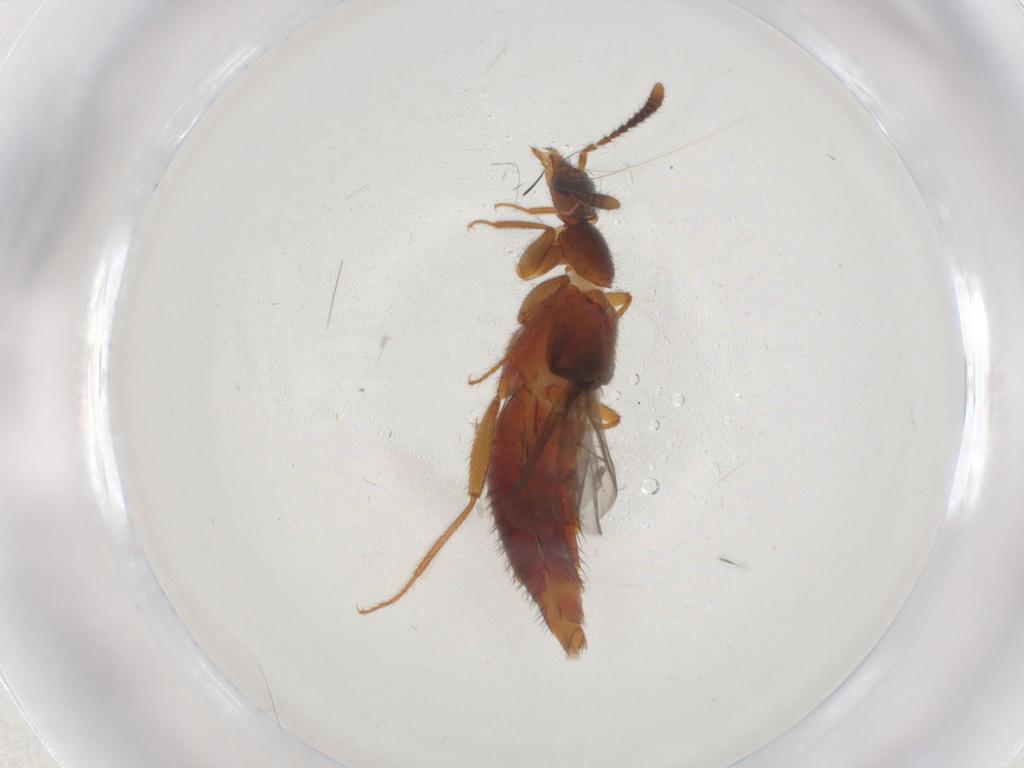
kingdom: Animalia
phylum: Arthropoda
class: Insecta
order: Coleoptera
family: Staphylinidae
